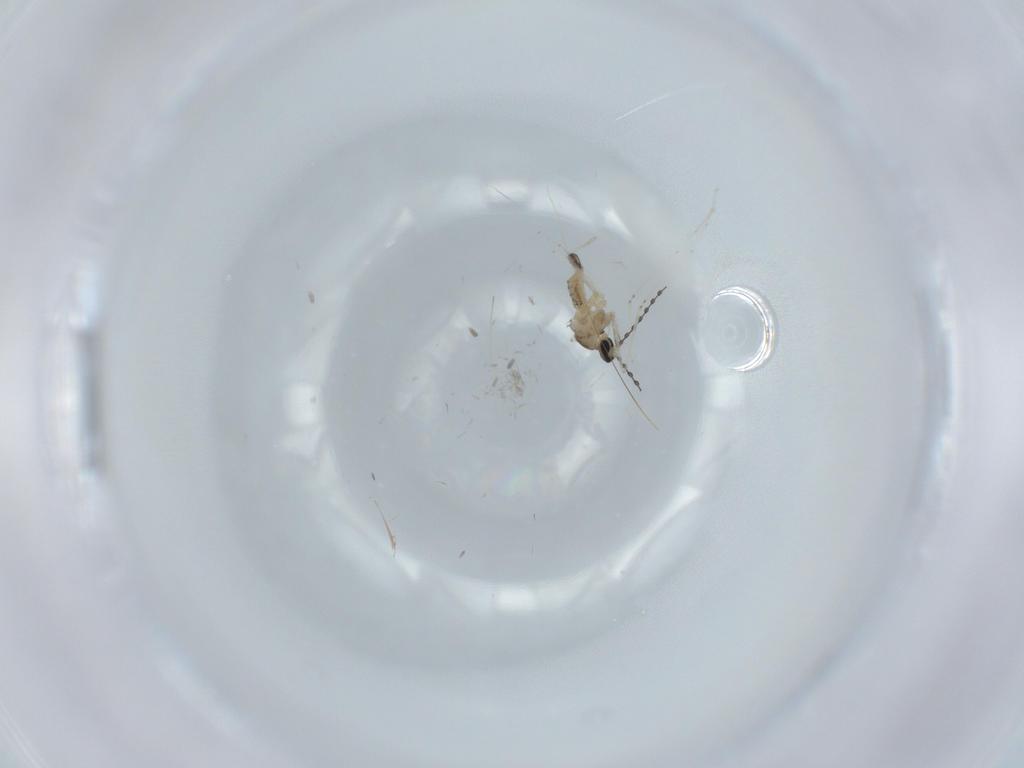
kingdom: Animalia
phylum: Arthropoda
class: Insecta
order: Diptera
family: Cecidomyiidae
